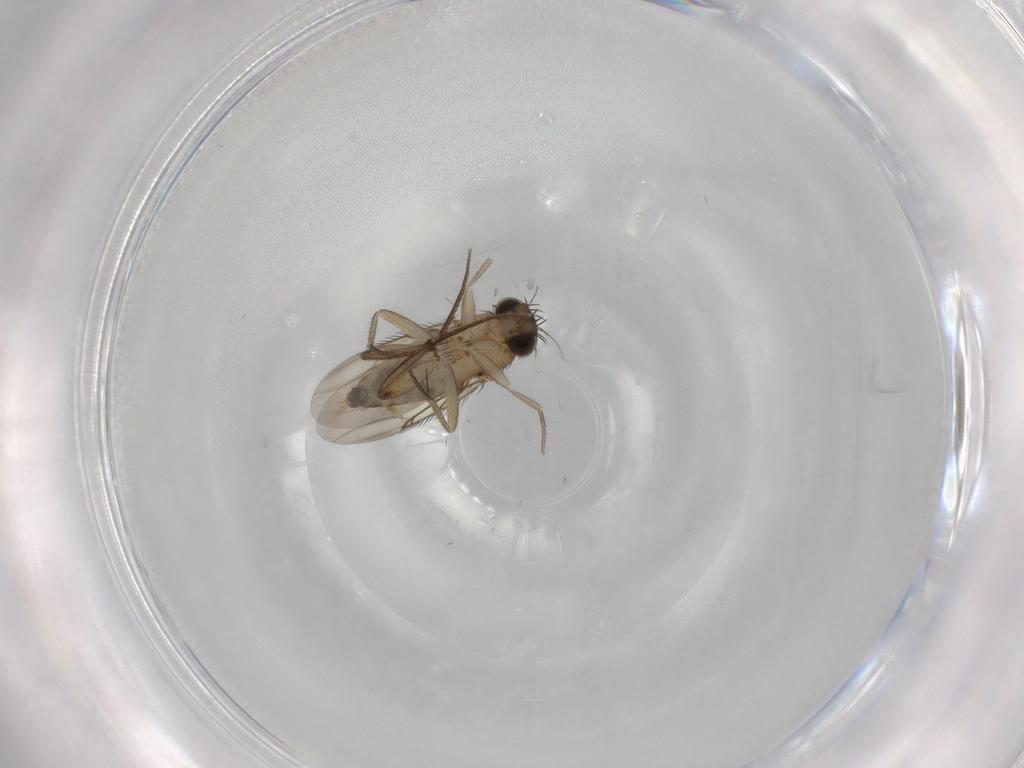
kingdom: Animalia
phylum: Arthropoda
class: Insecta
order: Diptera
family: Phoridae
